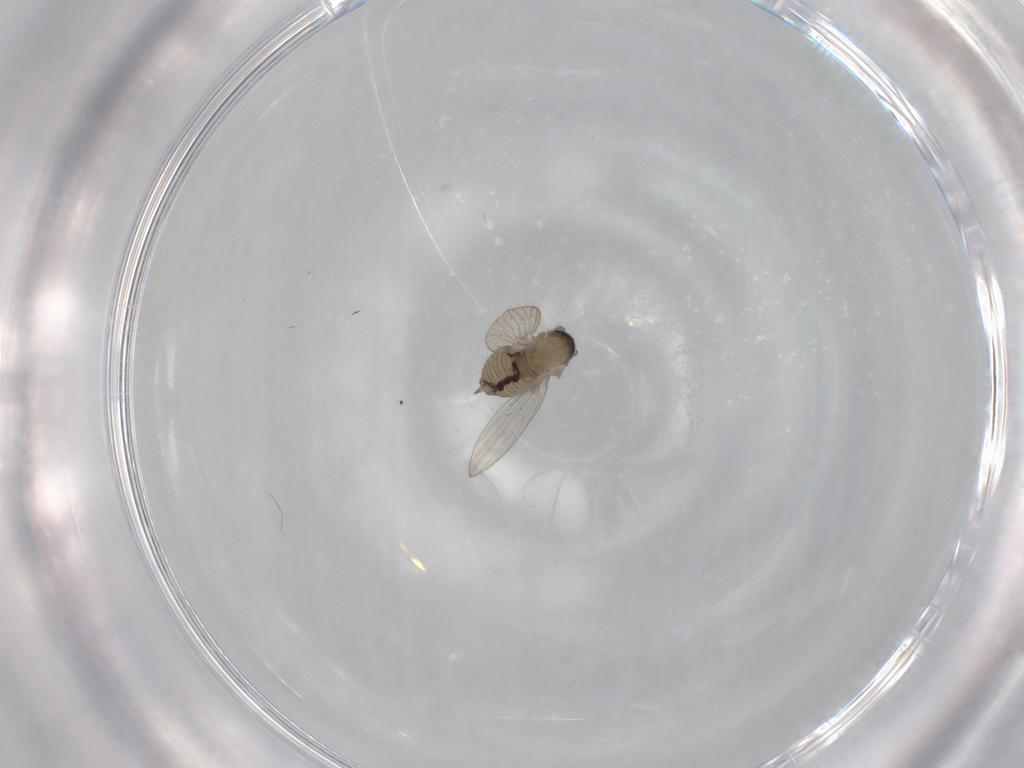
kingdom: Animalia
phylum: Arthropoda
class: Insecta
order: Diptera
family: Psychodidae
